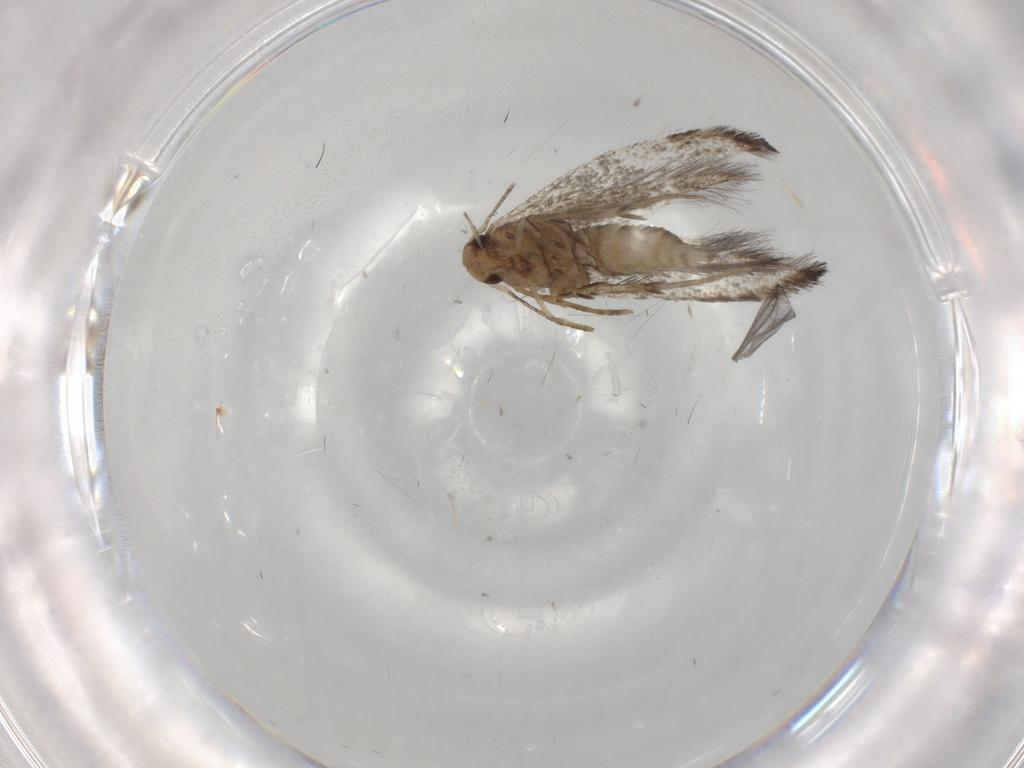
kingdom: Animalia
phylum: Arthropoda
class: Insecta
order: Lepidoptera
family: Gelechiidae
